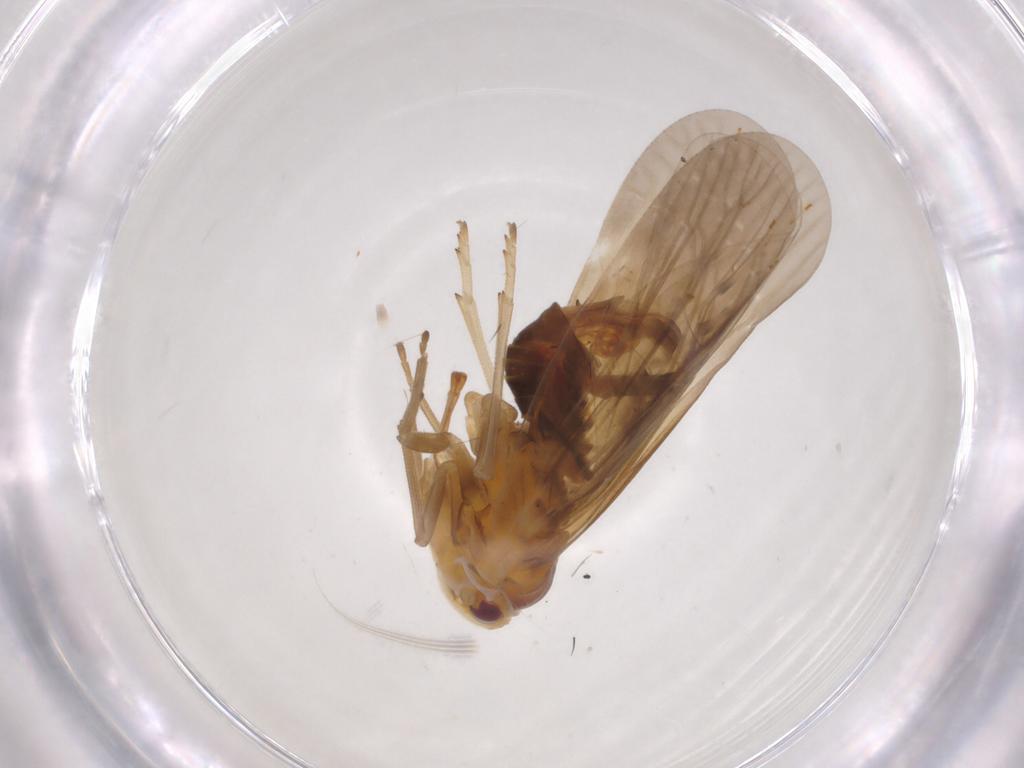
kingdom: Animalia
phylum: Arthropoda
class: Insecta
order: Hemiptera
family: Derbidae
